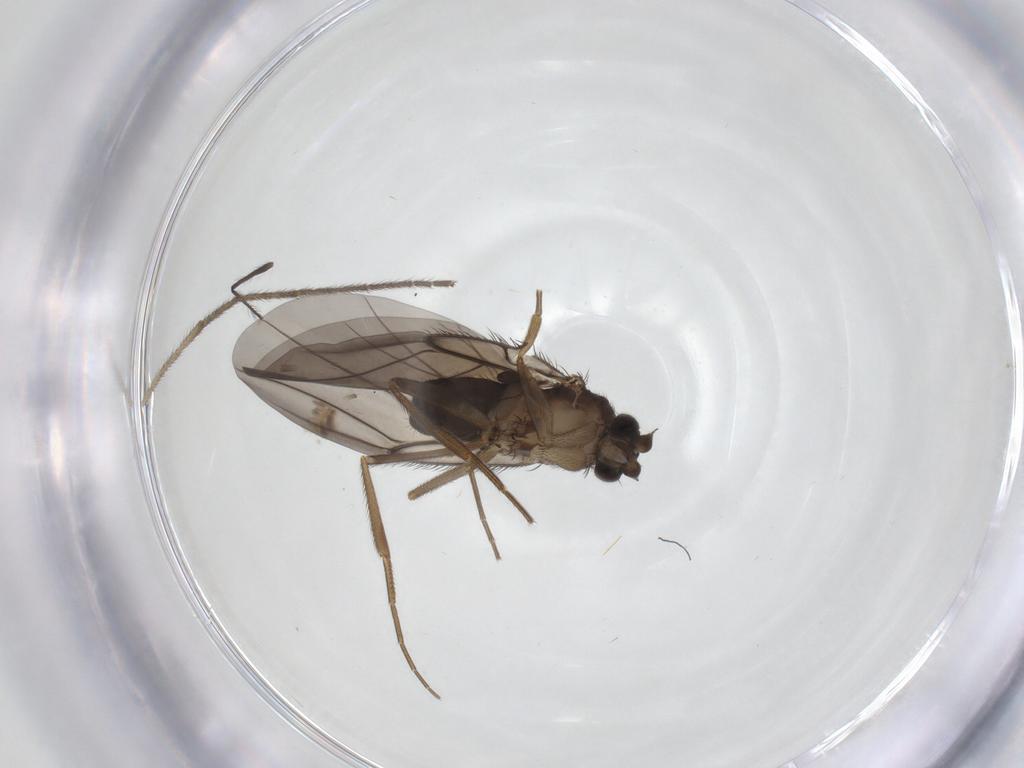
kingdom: Animalia
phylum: Arthropoda
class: Insecta
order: Diptera
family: Phoridae
